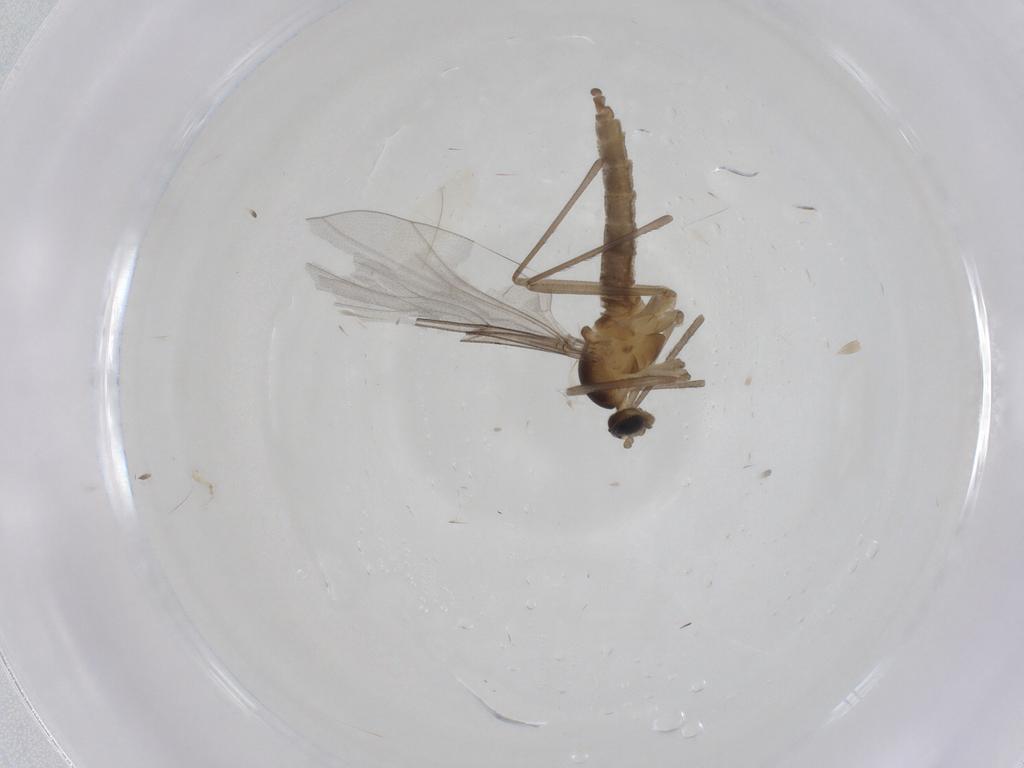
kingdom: Animalia
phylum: Arthropoda
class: Insecta
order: Diptera
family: Cecidomyiidae
